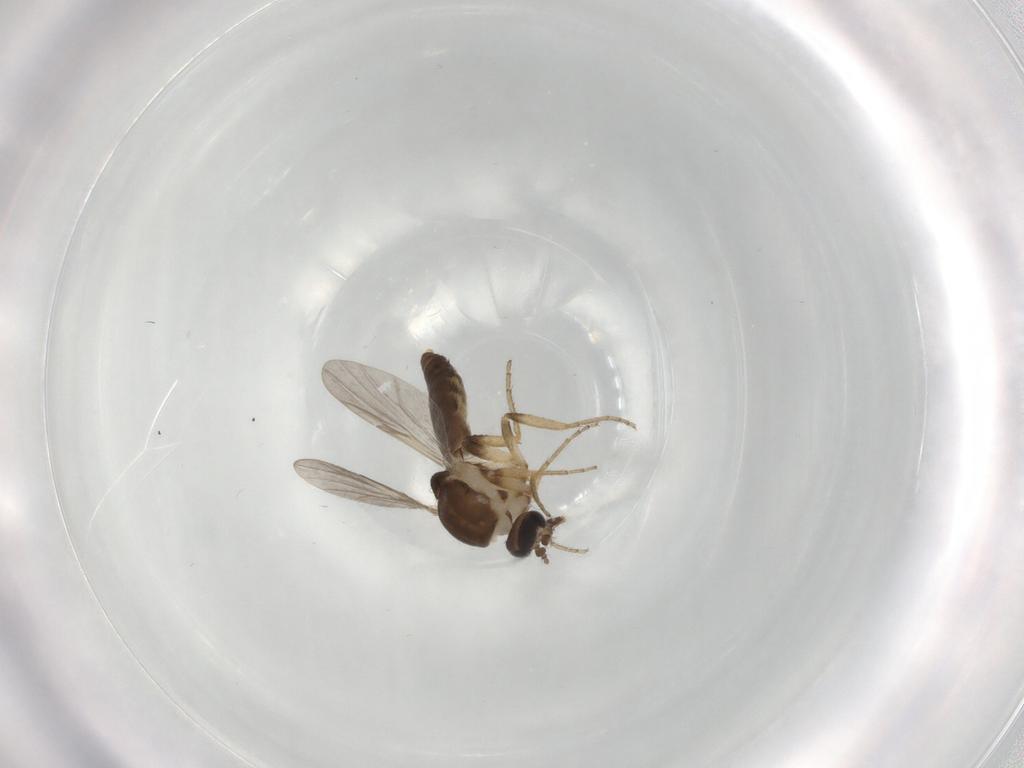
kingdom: Animalia
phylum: Arthropoda
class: Insecta
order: Diptera
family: Ceratopogonidae
